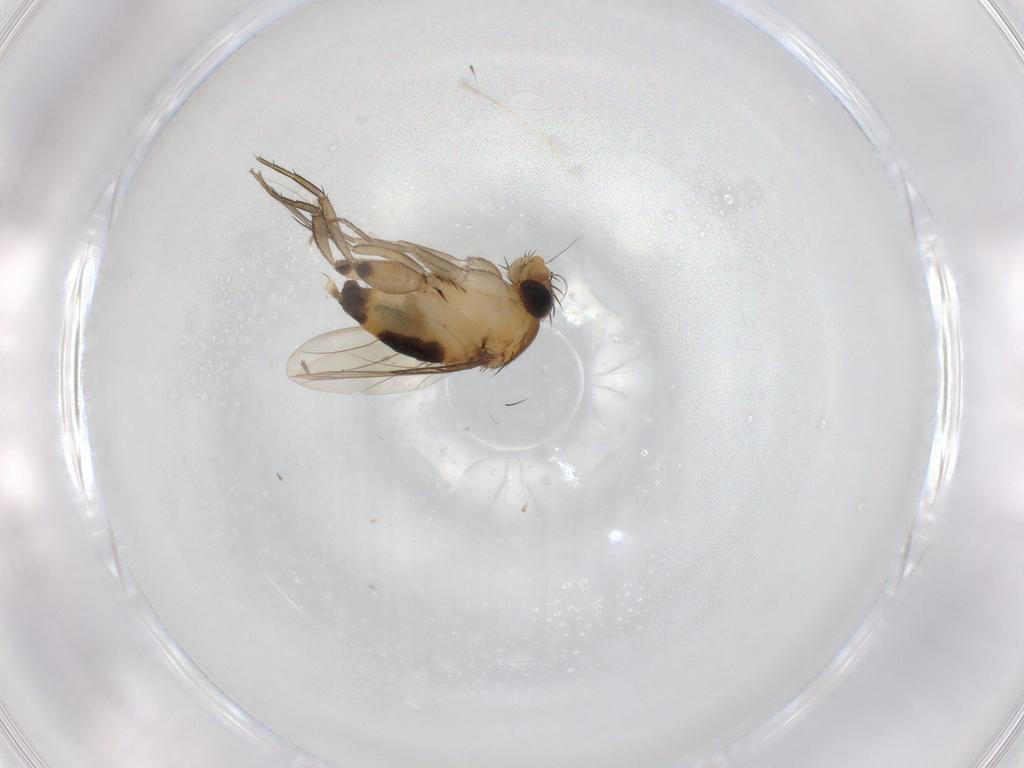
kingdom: Animalia
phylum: Arthropoda
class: Insecta
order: Diptera
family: Phoridae
